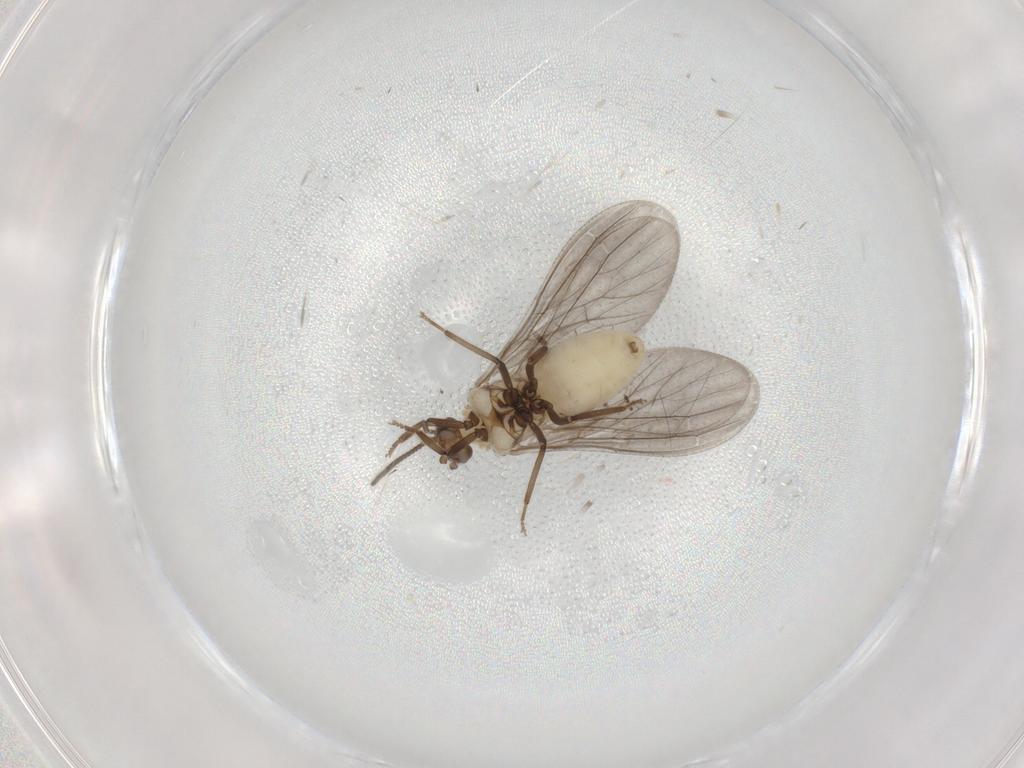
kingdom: Animalia
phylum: Arthropoda
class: Insecta
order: Neuroptera
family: Coniopterygidae
